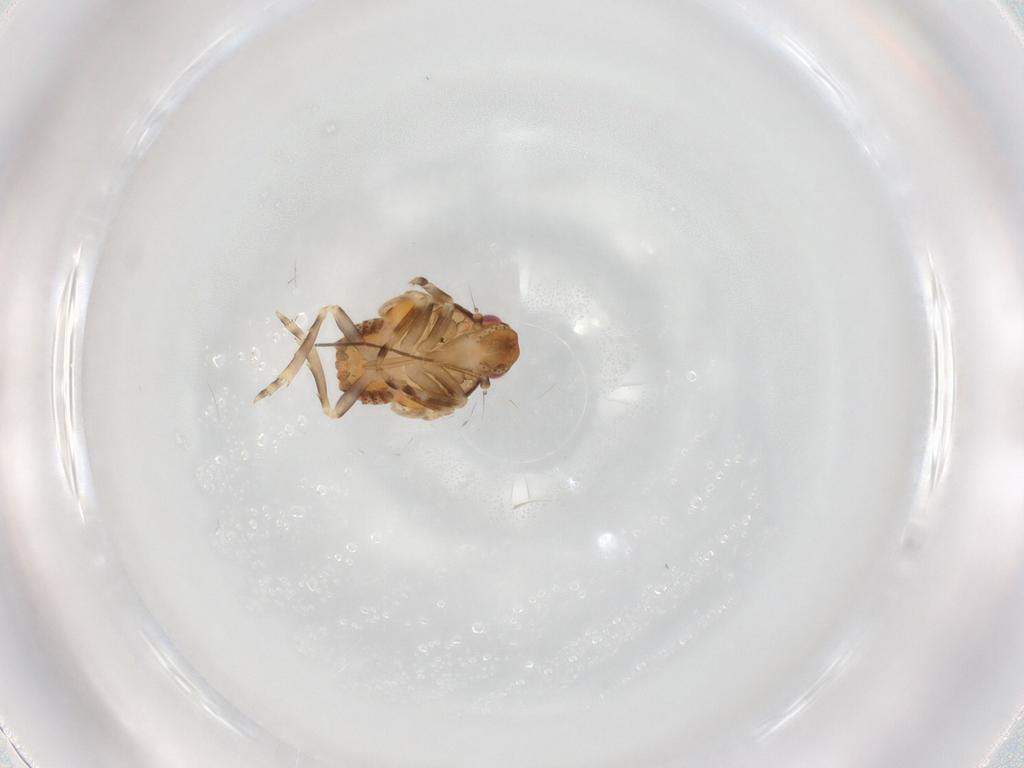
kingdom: Animalia
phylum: Arthropoda
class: Insecta
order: Hemiptera
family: Flatidae
